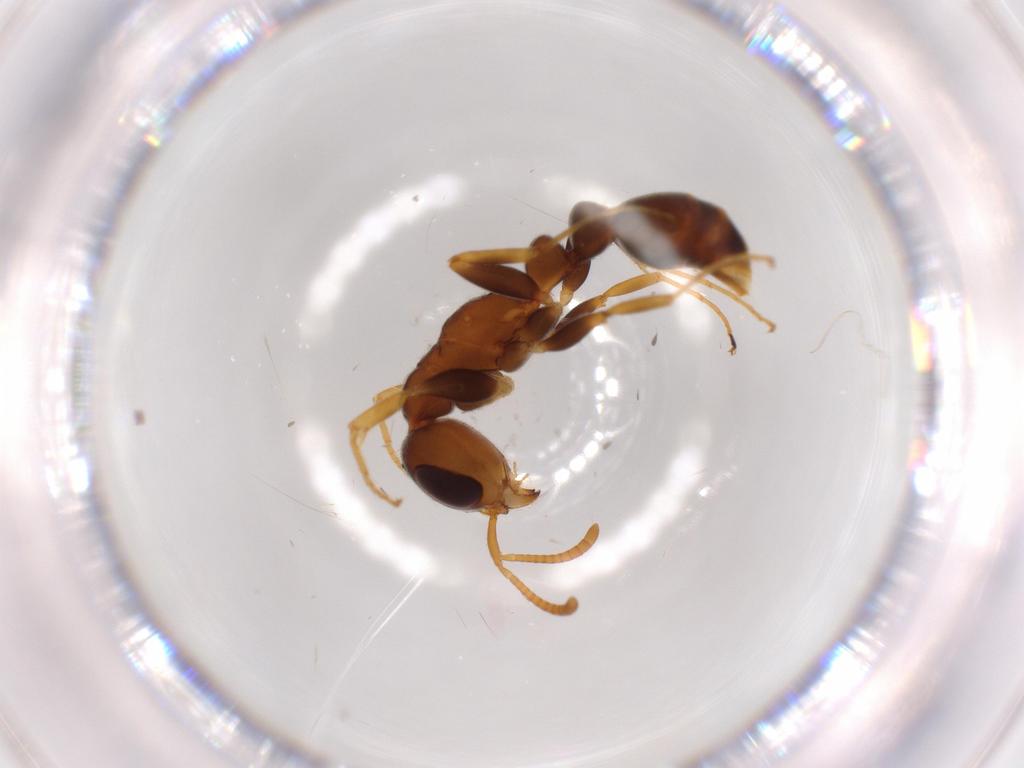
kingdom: Animalia
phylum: Arthropoda
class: Insecta
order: Hymenoptera
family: Formicidae
